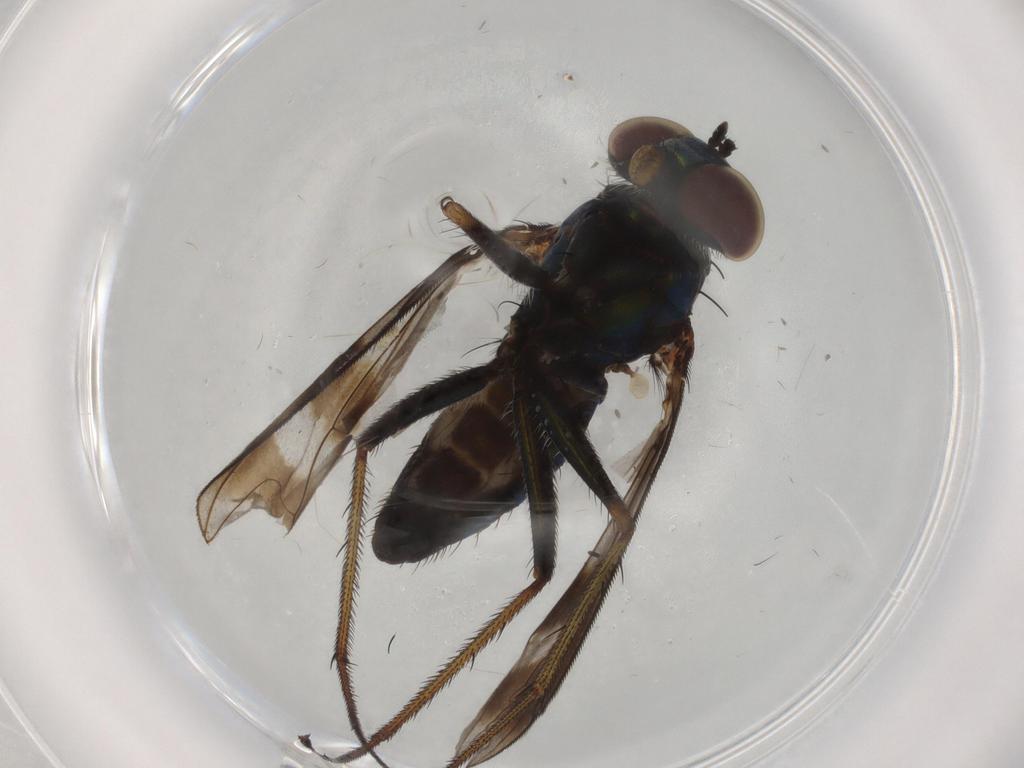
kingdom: Animalia
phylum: Arthropoda
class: Insecta
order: Diptera
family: Dolichopodidae
